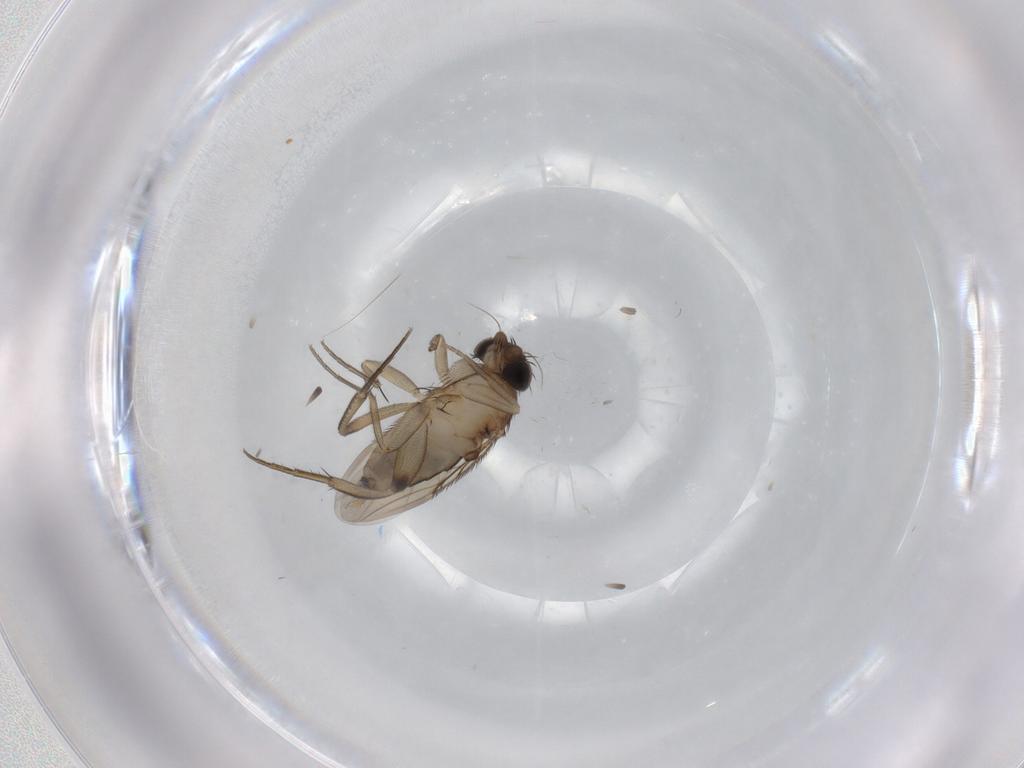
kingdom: Animalia
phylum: Arthropoda
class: Insecta
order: Diptera
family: Phoridae
